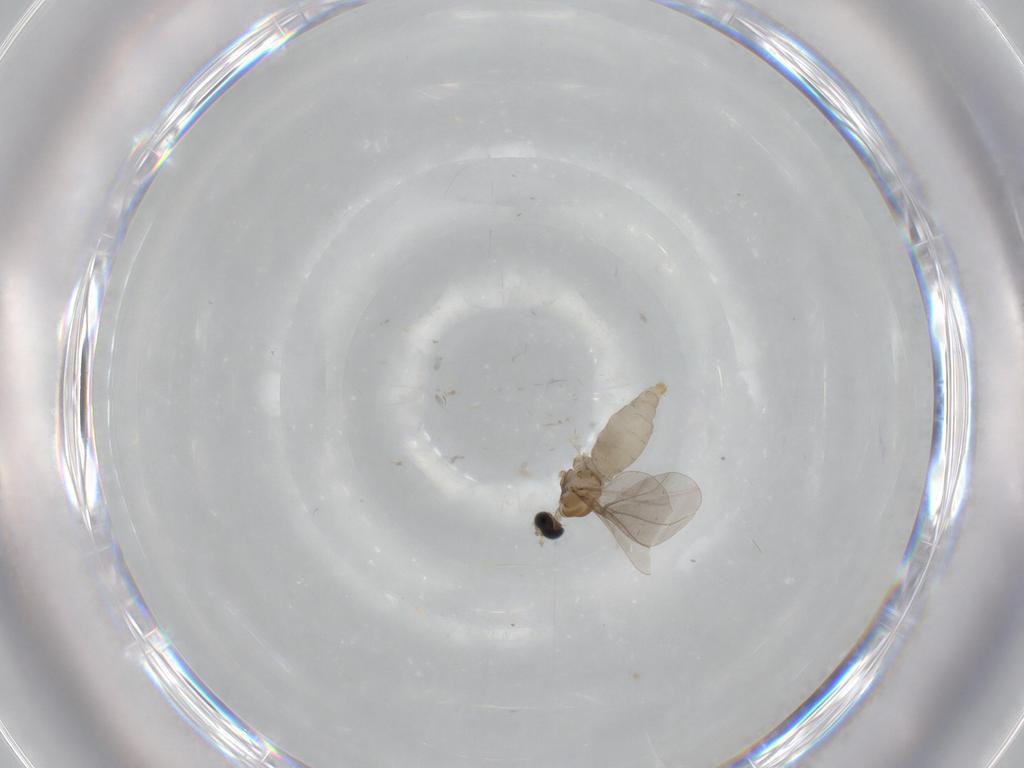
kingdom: Animalia
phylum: Arthropoda
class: Insecta
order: Diptera
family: Cecidomyiidae
